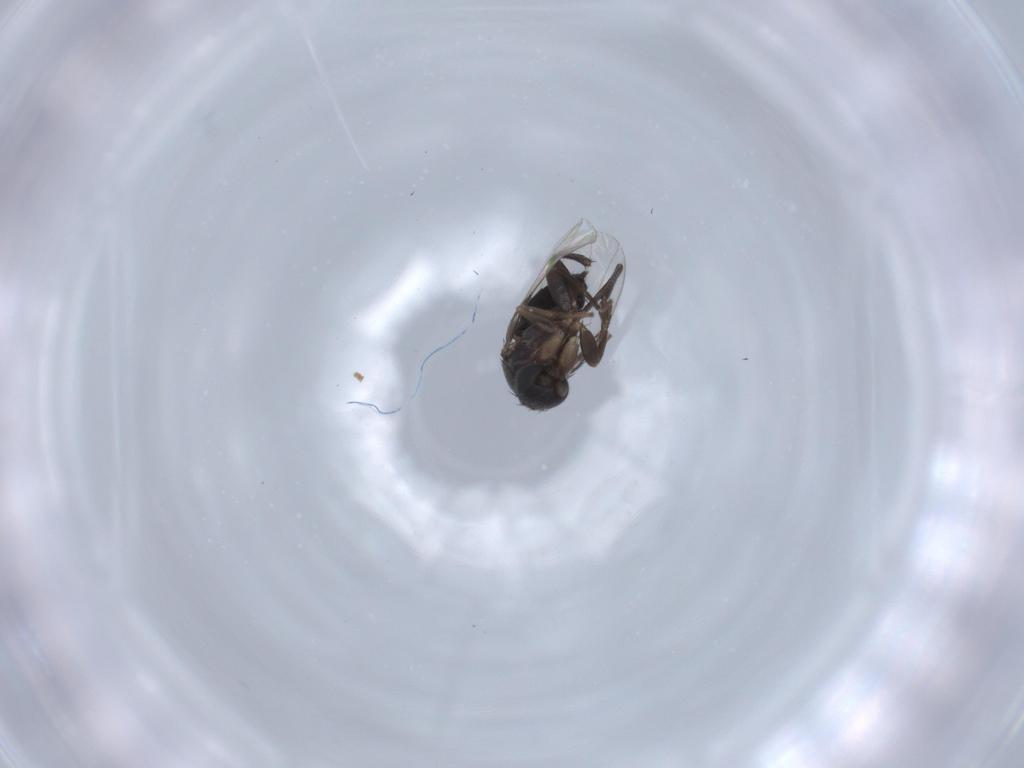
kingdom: Animalia
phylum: Arthropoda
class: Insecta
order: Diptera
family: Phoridae
